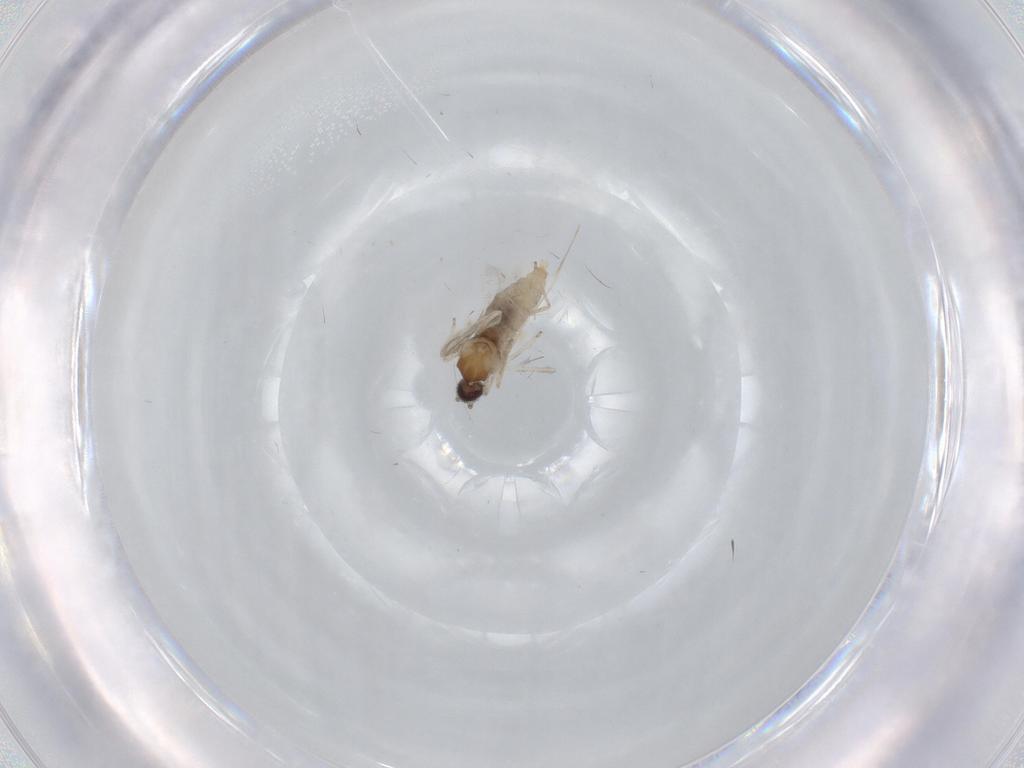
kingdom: Animalia
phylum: Arthropoda
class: Insecta
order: Diptera
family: Cecidomyiidae
